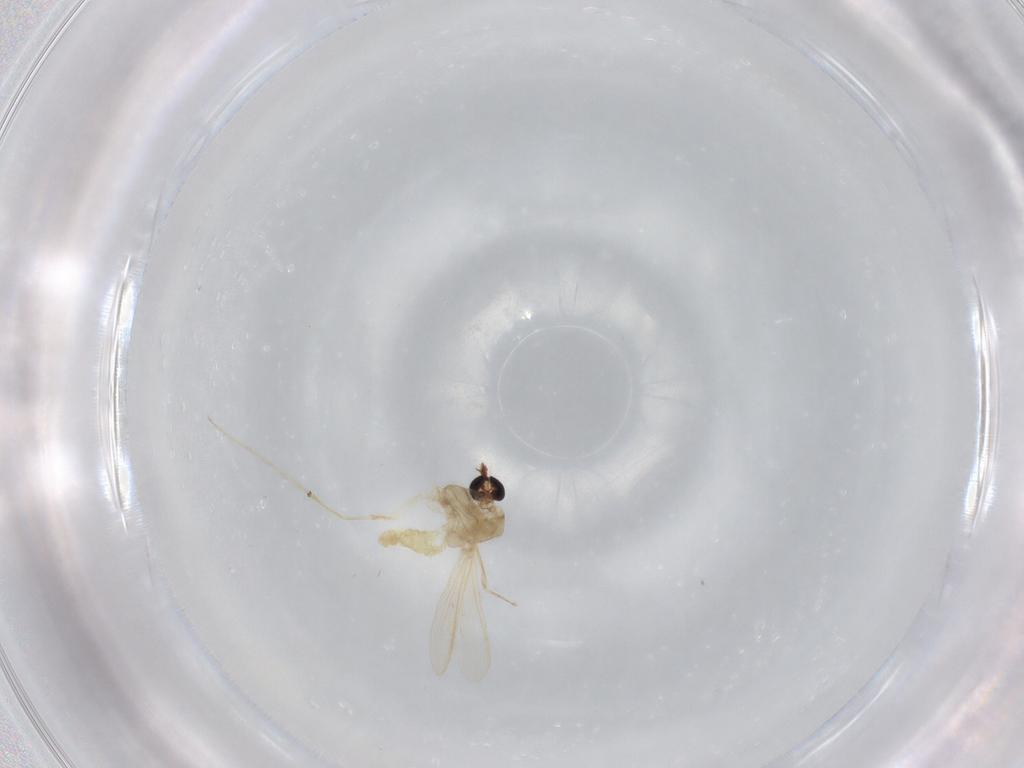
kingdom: Animalia
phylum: Arthropoda
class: Insecta
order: Diptera
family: Chironomidae
